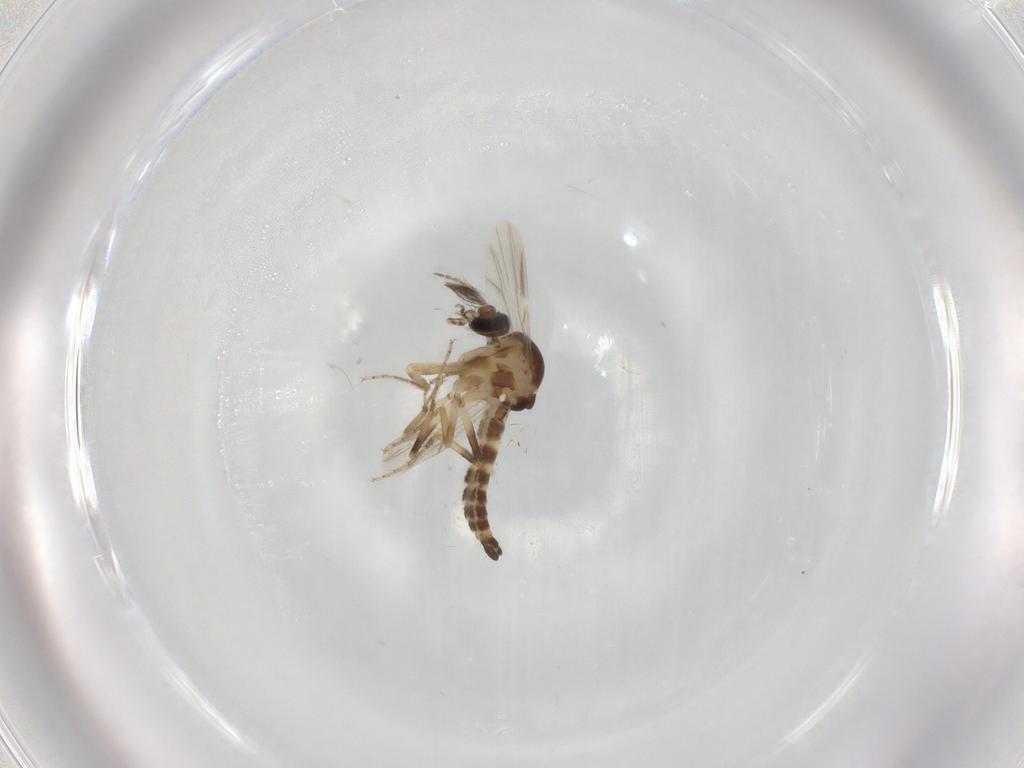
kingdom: Animalia
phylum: Arthropoda
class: Insecta
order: Diptera
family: Ceratopogonidae
